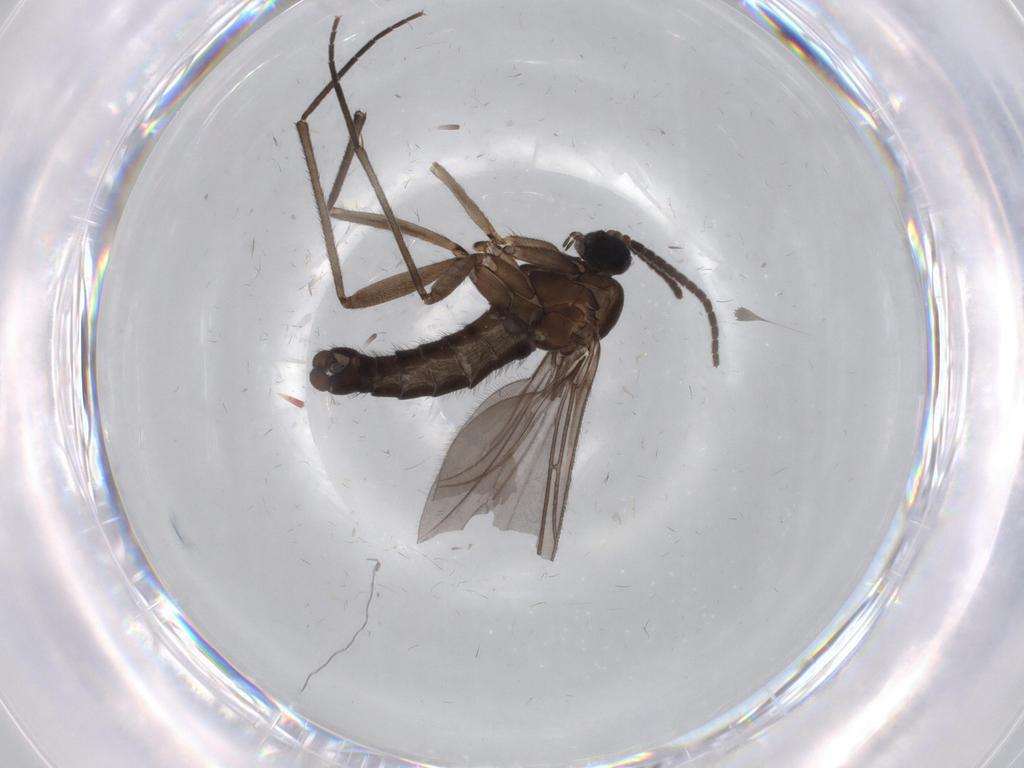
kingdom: Animalia
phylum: Arthropoda
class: Insecta
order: Diptera
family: Sciaridae
